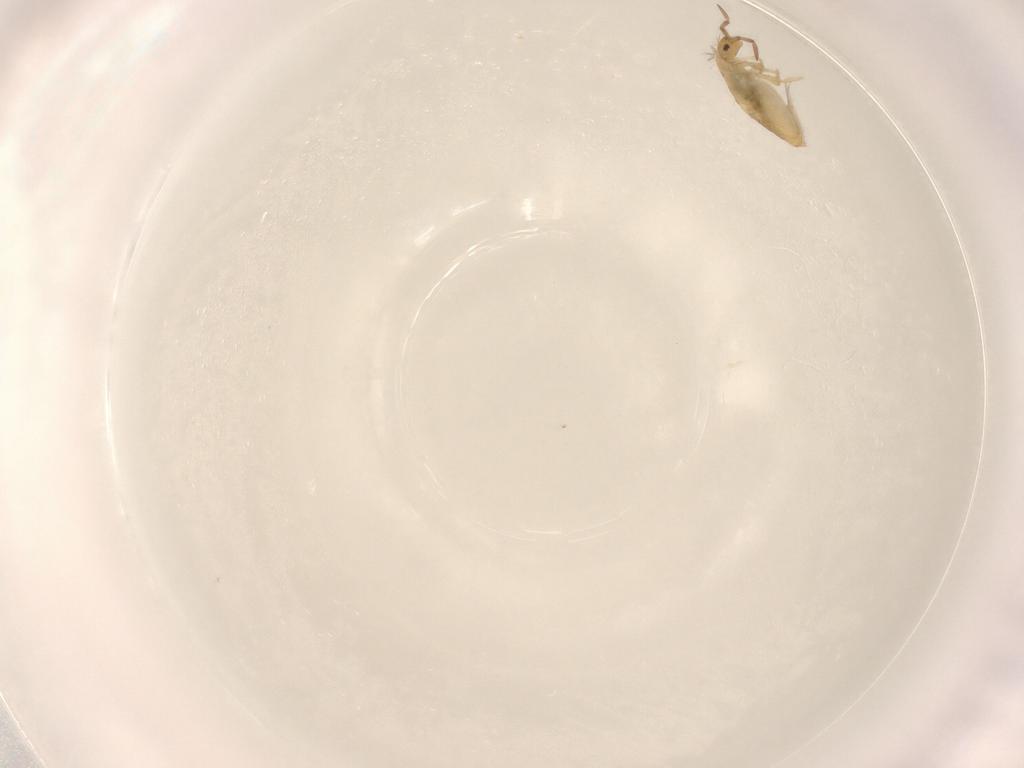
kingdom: Animalia
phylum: Arthropoda
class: Collembola
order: Entomobryomorpha
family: Entomobryidae
